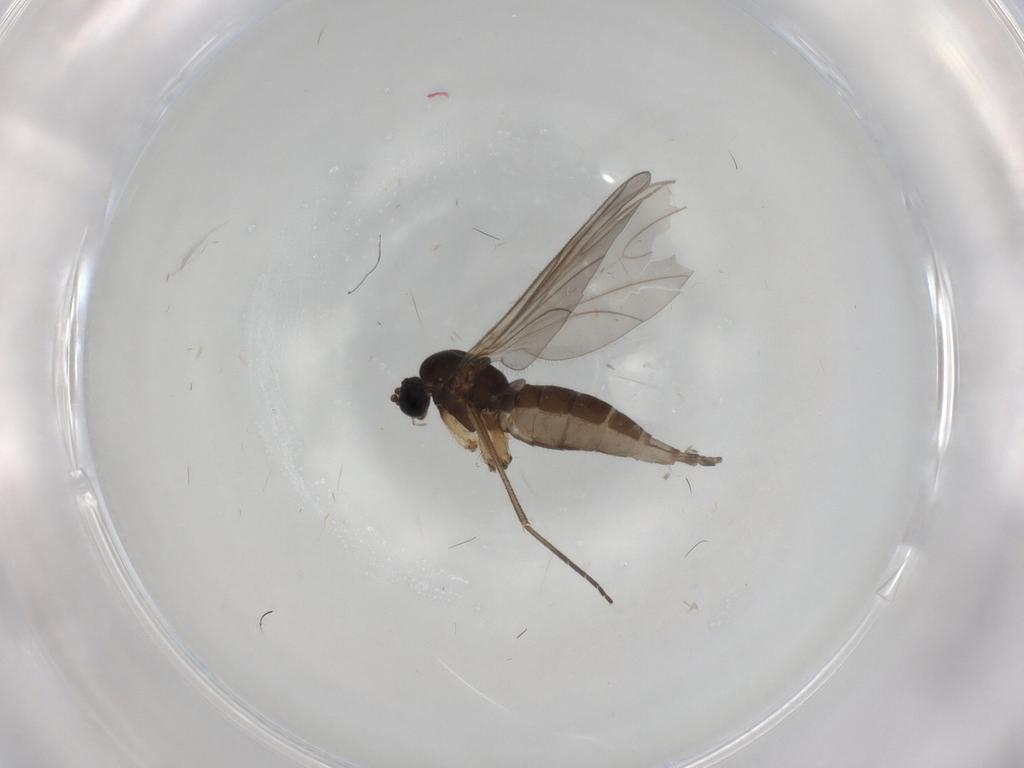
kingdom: Animalia
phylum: Arthropoda
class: Insecta
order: Diptera
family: Sciaridae
